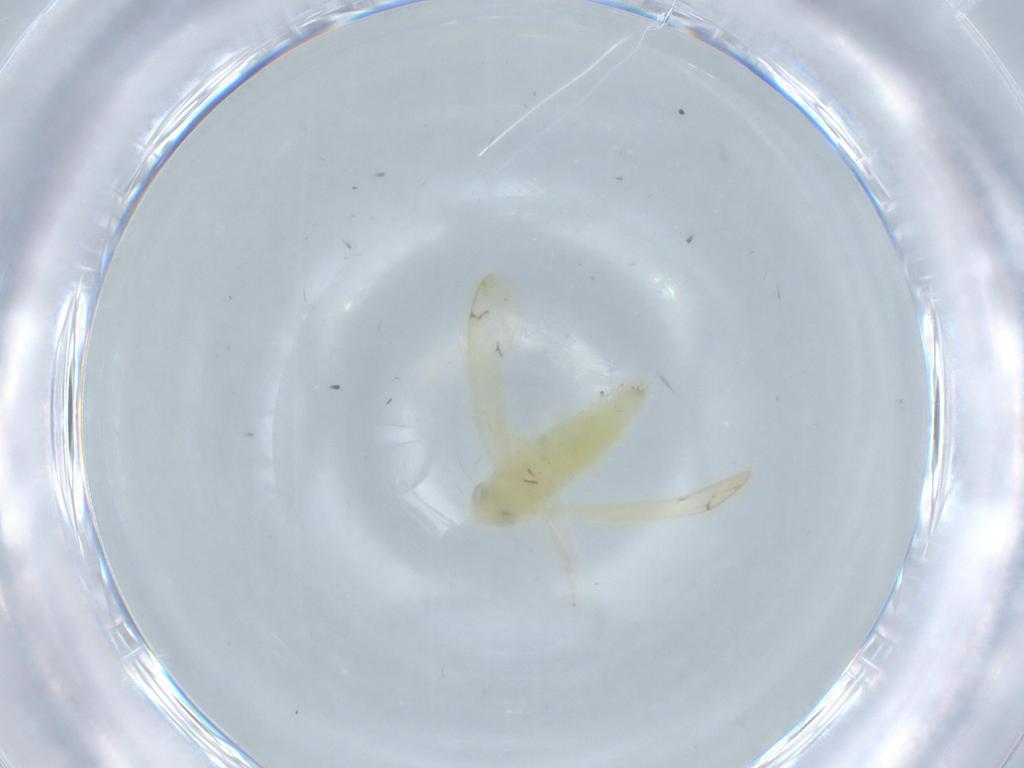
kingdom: Animalia
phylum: Arthropoda
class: Insecta
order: Hemiptera
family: Cicadellidae
